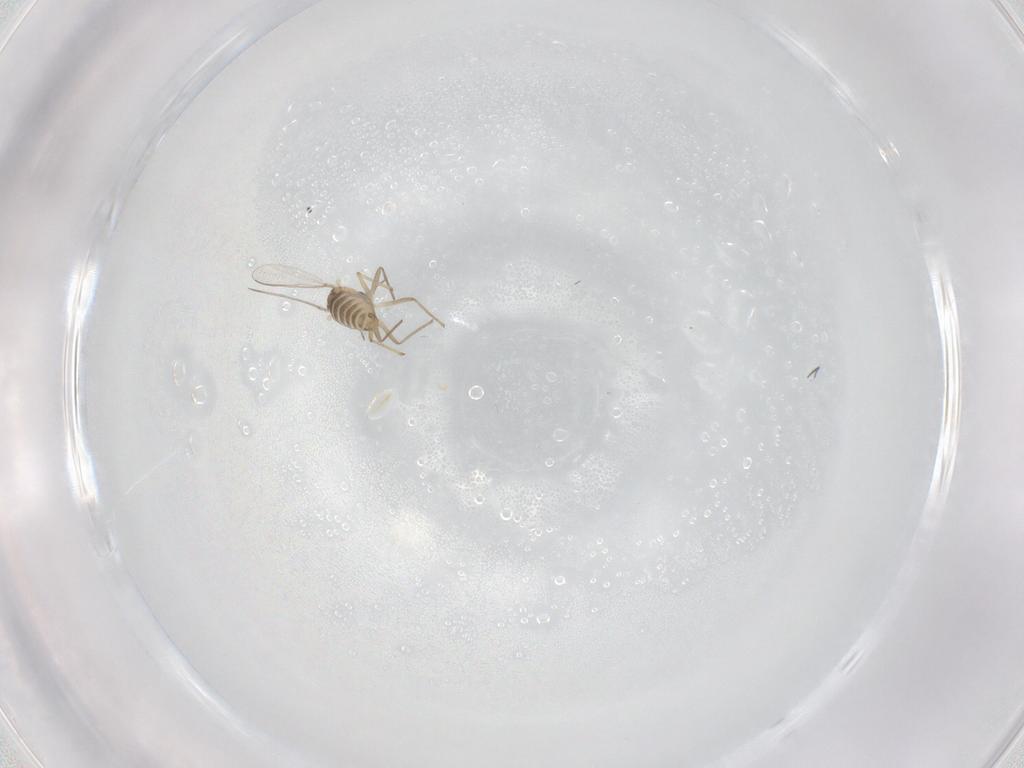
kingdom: Animalia
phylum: Arthropoda
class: Insecta
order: Diptera
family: Chironomidae
